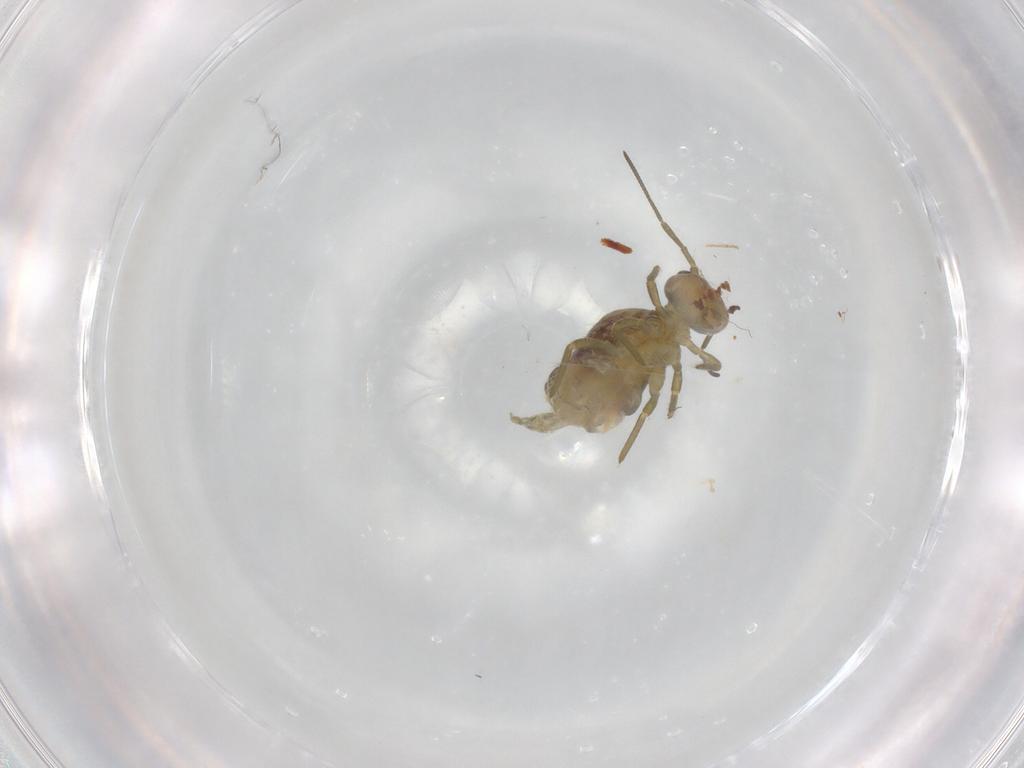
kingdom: Animalia
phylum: Arthropoda
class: Collembola
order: Symphypleona
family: Sminthuridae
